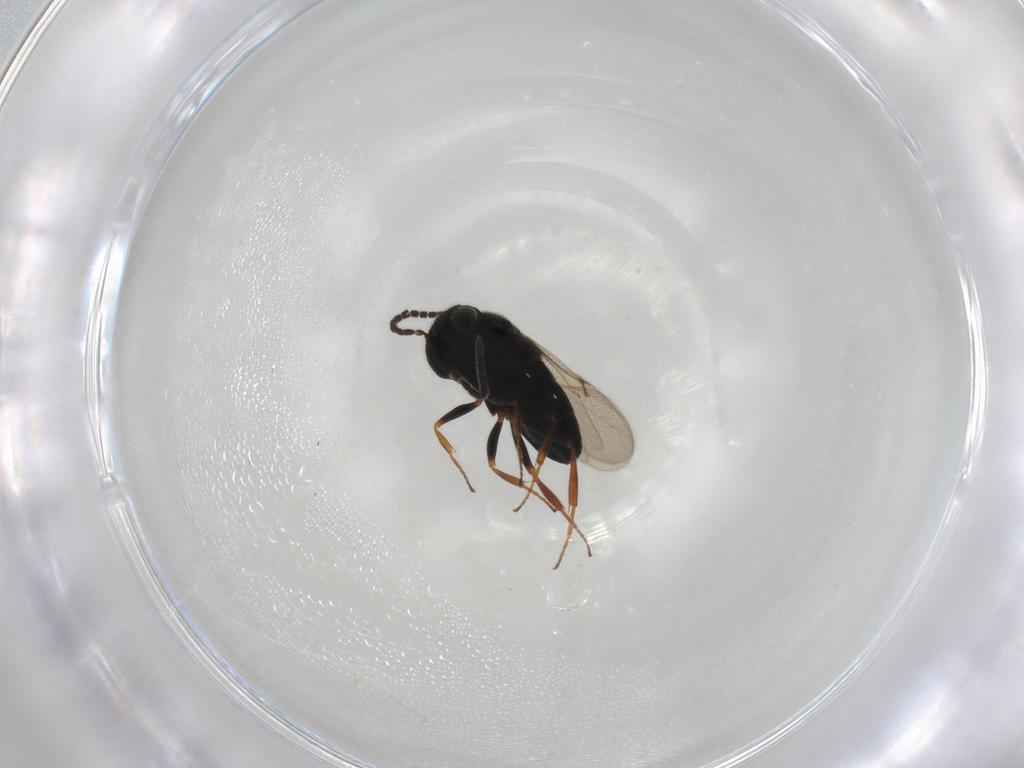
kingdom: Animalia
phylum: Arthropoda
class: Insecta
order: Hymenoptera
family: Scelionidae
